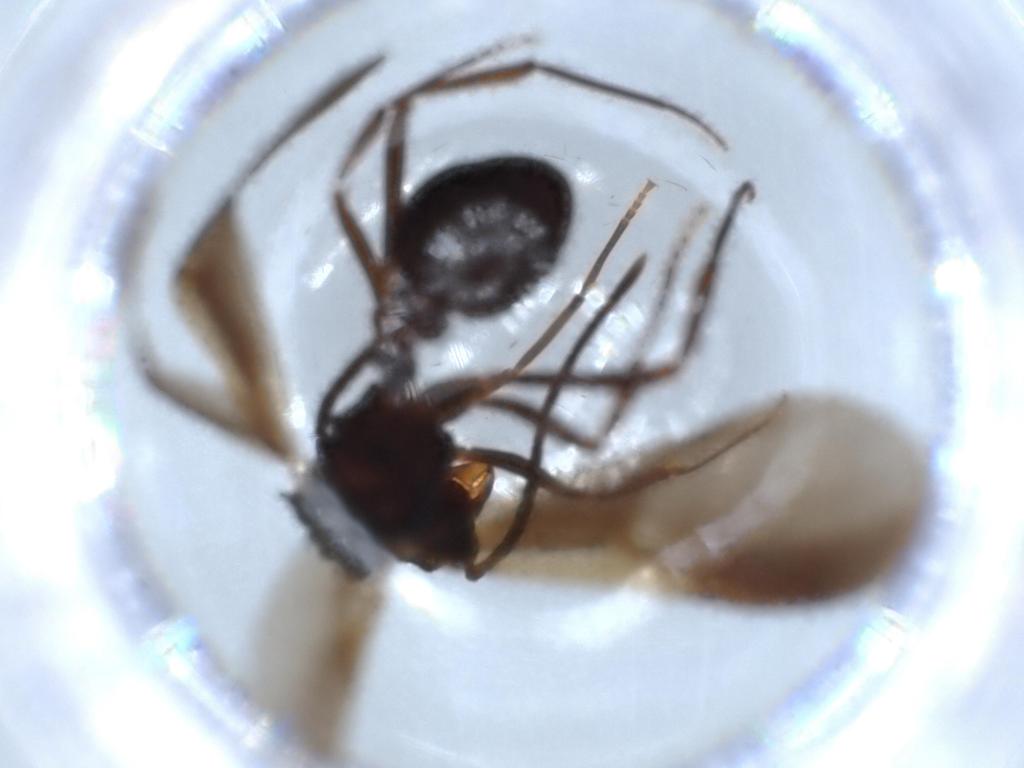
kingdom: Animalia
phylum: Arthropoda
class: Insecta
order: Hymenoptera
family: Formicidae
